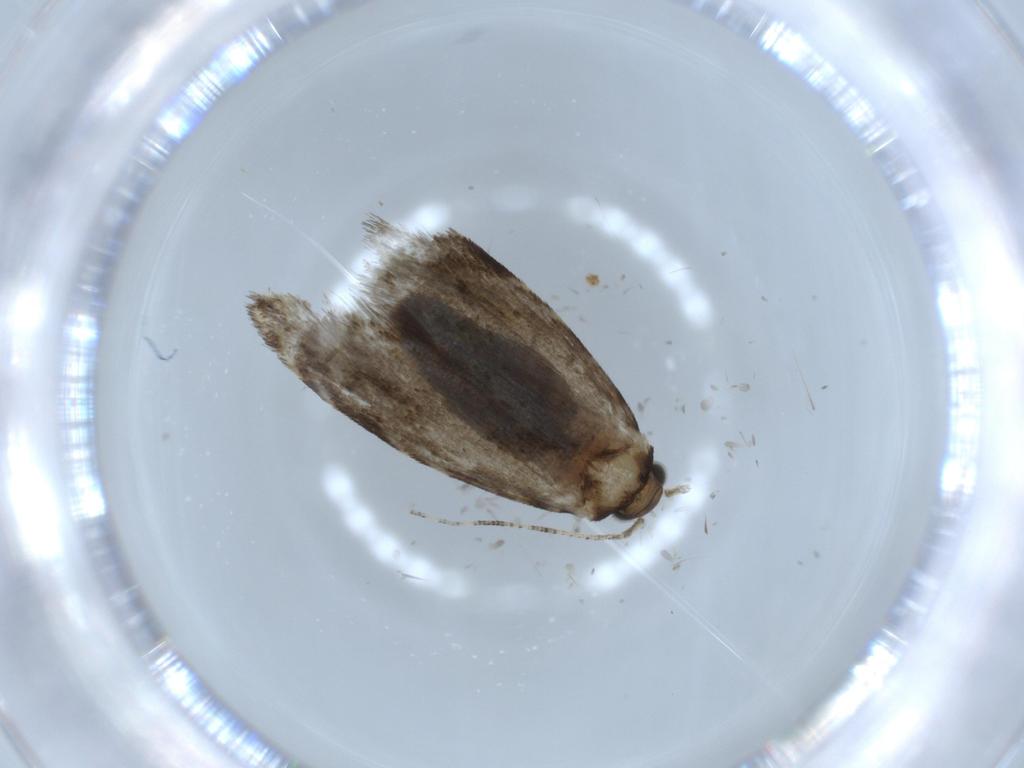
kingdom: Animalia
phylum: Arthropoda
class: Insecta
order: Lepidoptera
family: Tineidae
